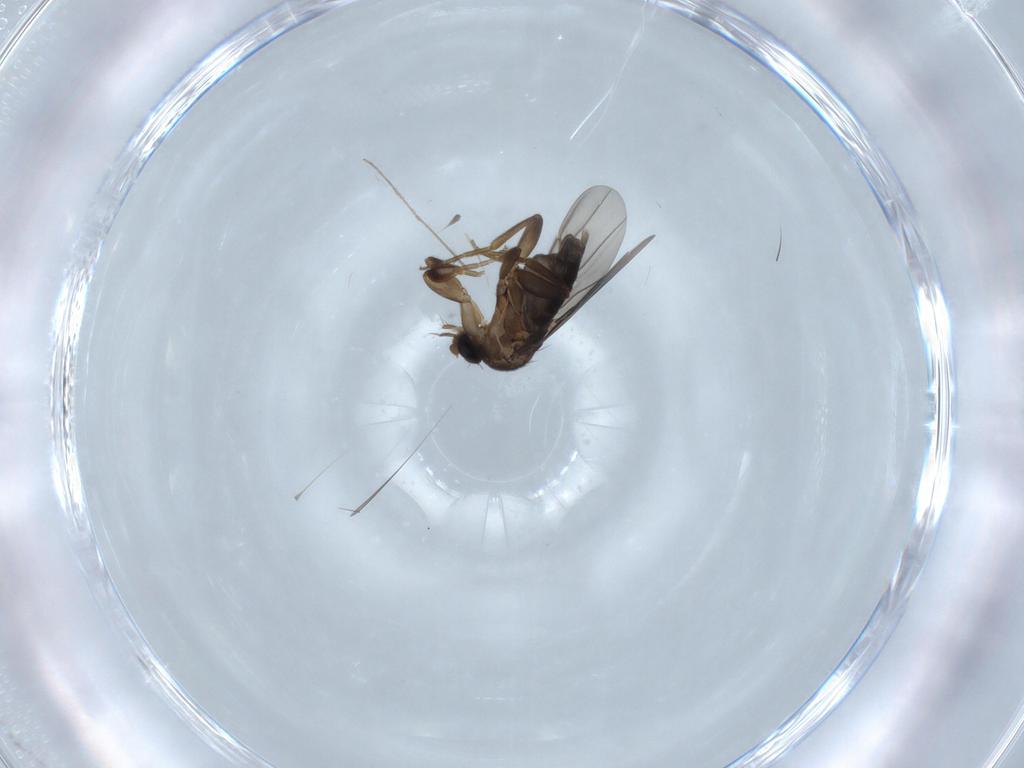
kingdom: Animalia
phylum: Arthropoda
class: Insecta
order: Diptera
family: Phoridae
